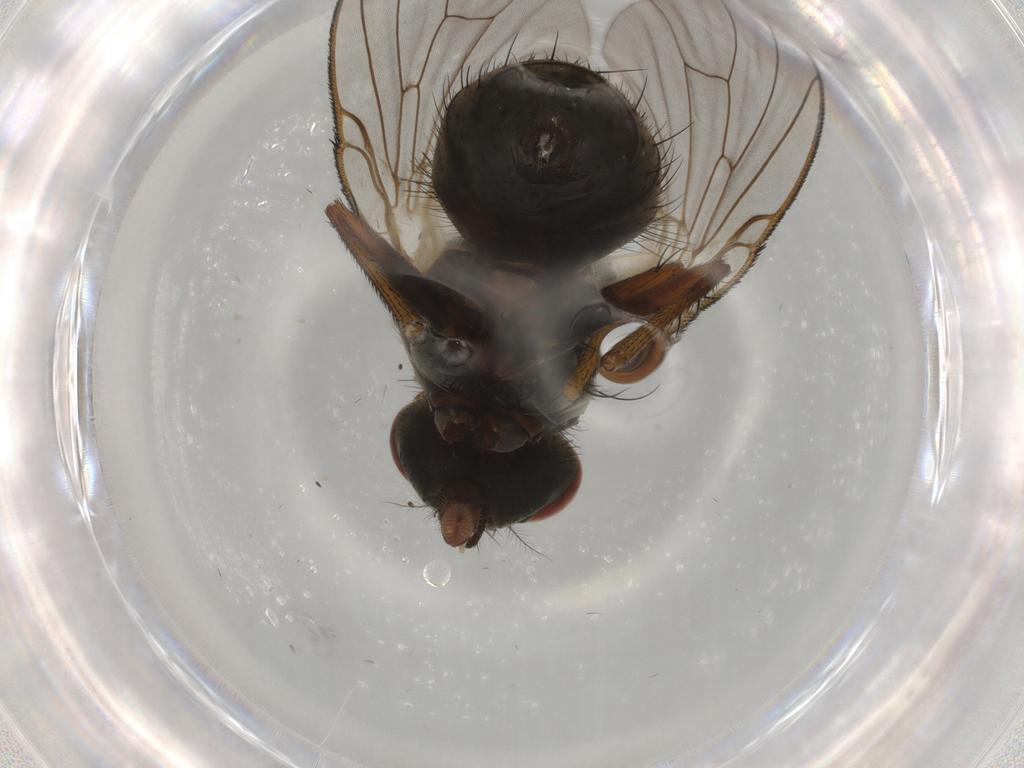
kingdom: Animalia
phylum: Arthropoda
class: Insecta
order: Diptera
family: Muscidae
